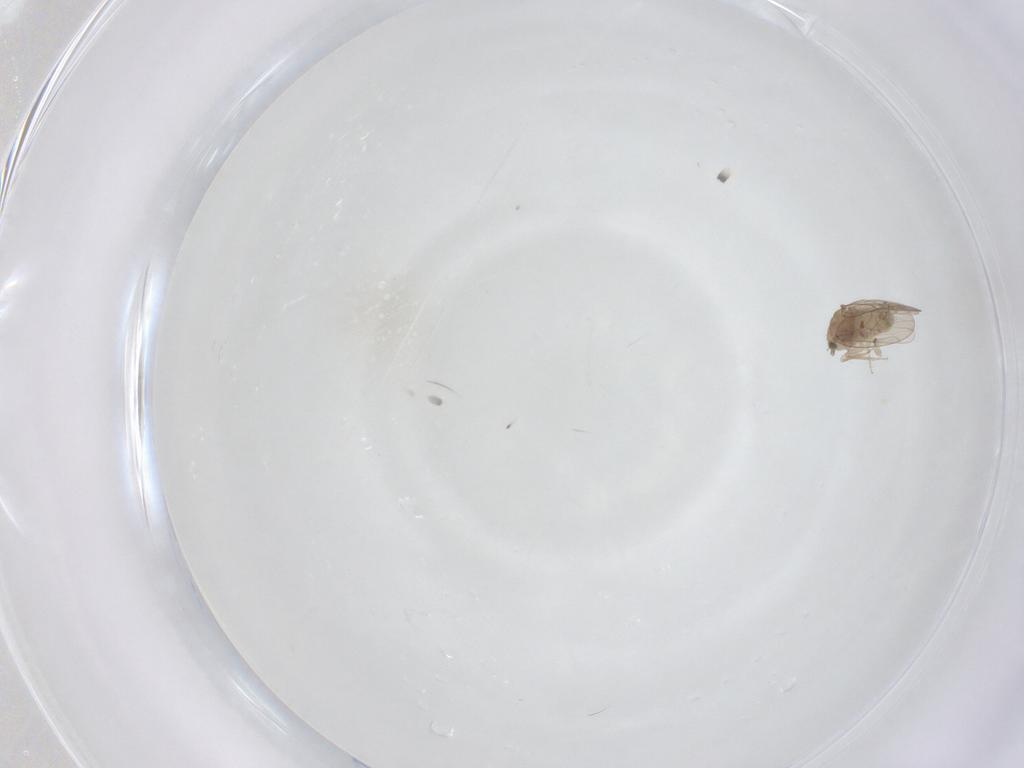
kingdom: Animalia
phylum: Arthropoda
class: Insecta
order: Psocodea
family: Ectopsocidae
